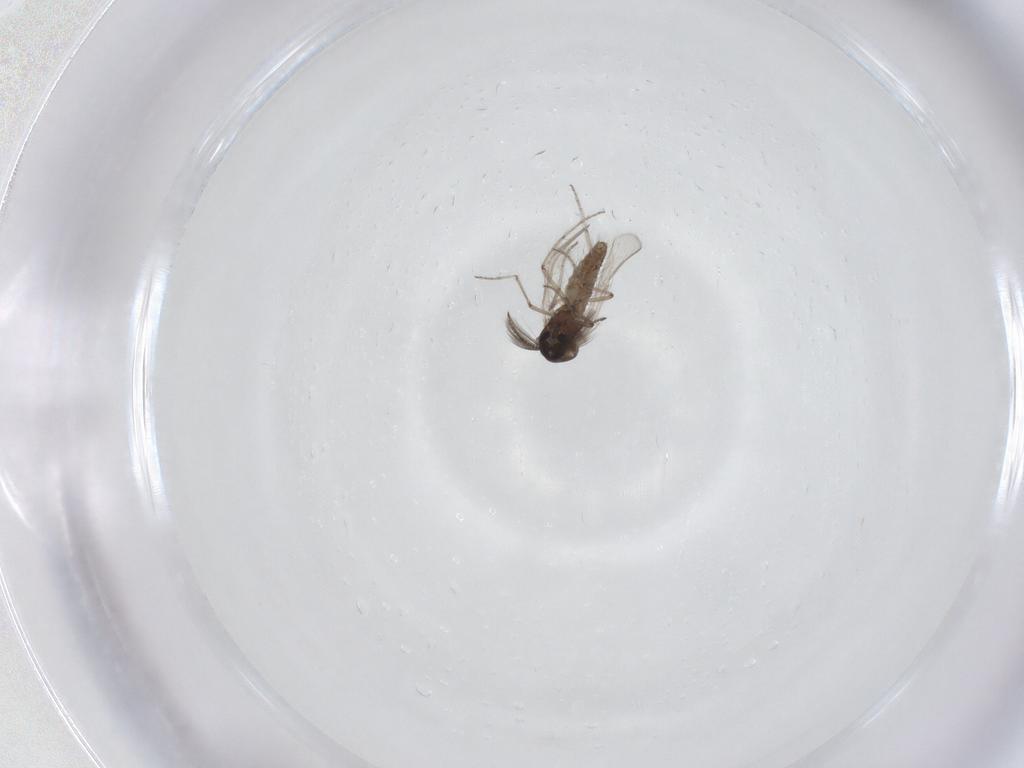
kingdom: Animalia
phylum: Arthropoda
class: Insecta
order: Diptera
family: Ceratopogonidae
